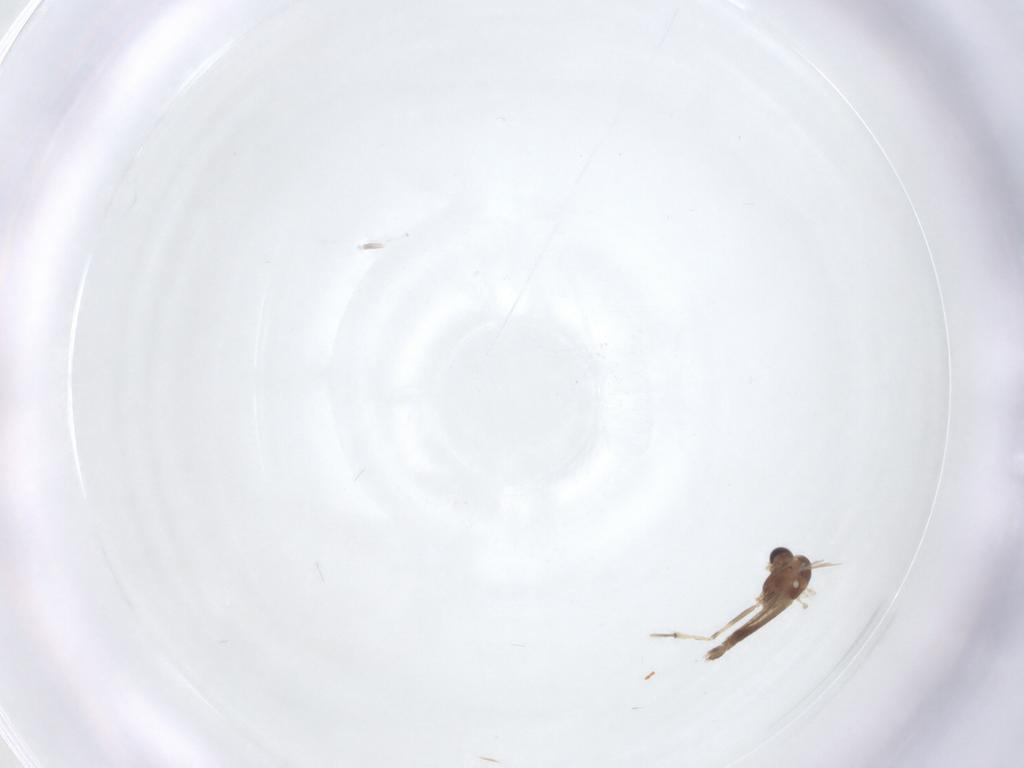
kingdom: Animalia
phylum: Arthropoda
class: Insecta
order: Diptera
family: Chironomidae
